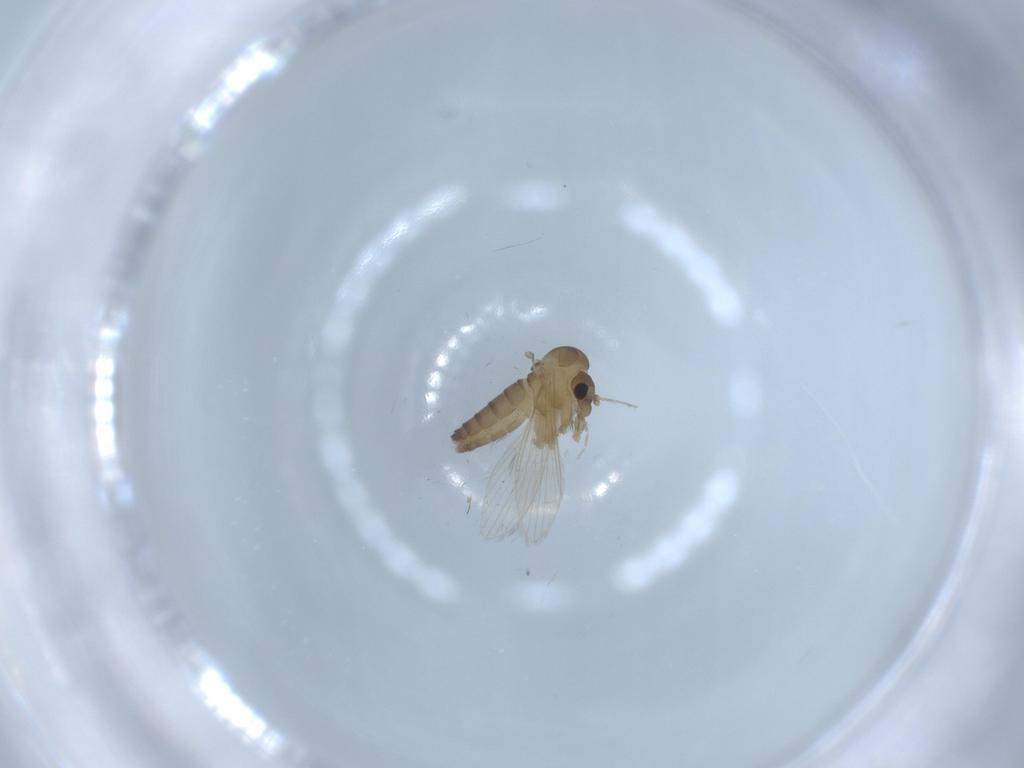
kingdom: Animalia
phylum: Arthropoda
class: Insecta
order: Diptera
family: Psychodidae
